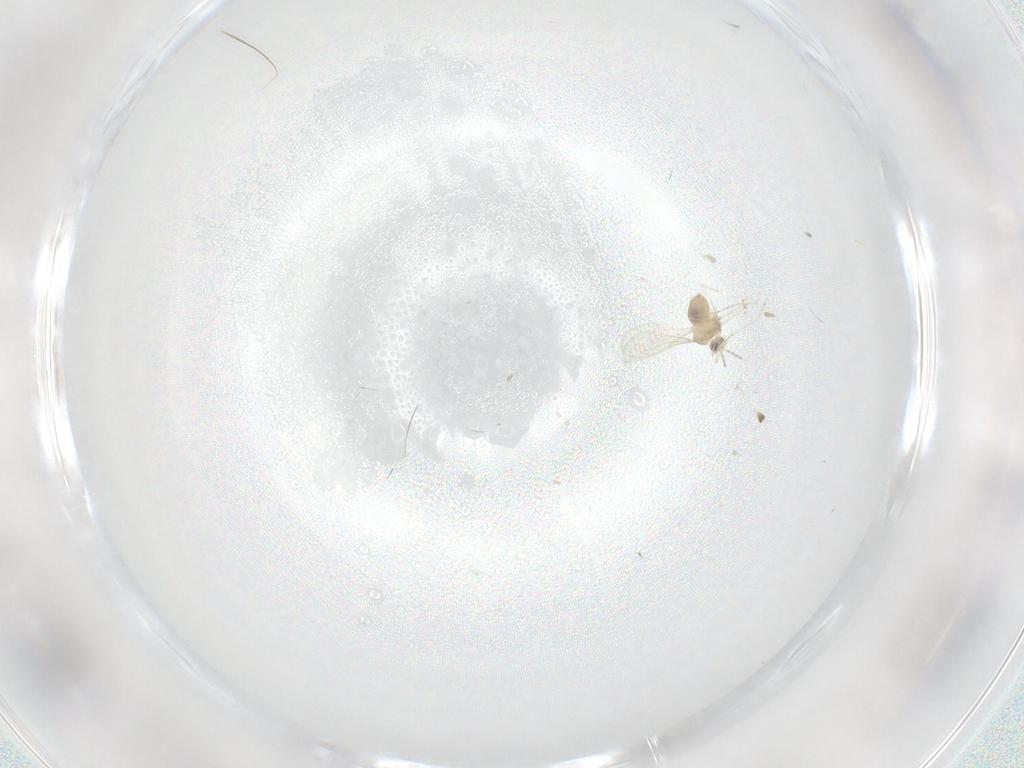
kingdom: Animalia
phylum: Arthropoda
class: Insecta
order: Diptera
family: Cecidomyiidae
